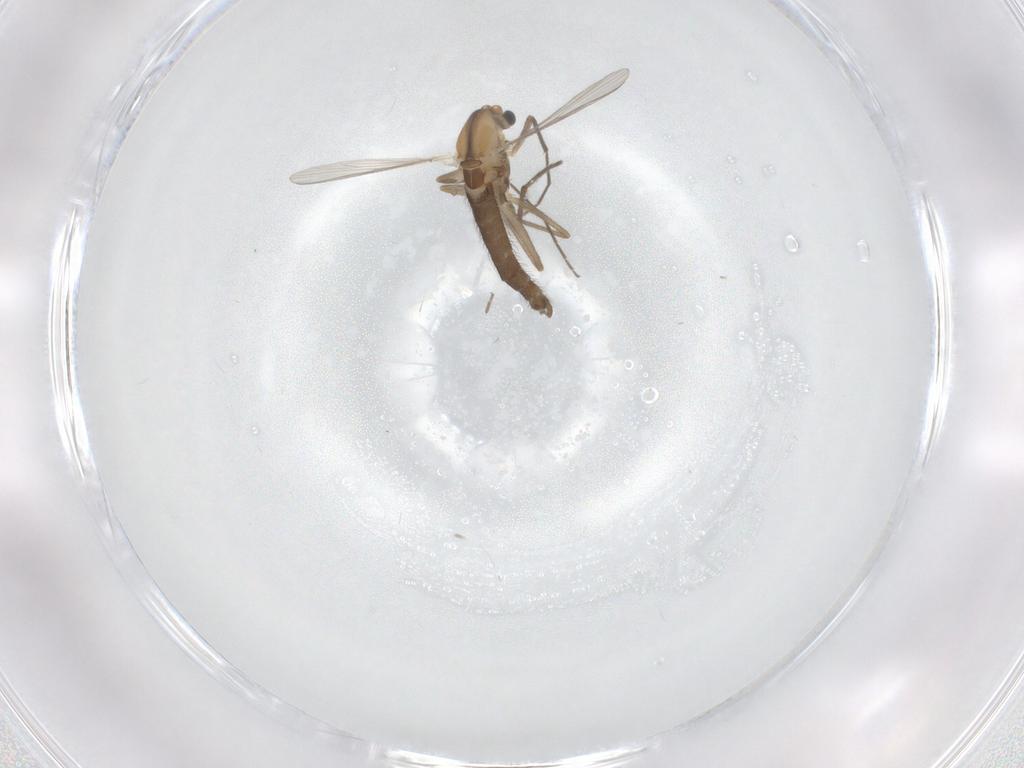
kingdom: Animalia
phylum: Arthropoda
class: Insecta
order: Diptera
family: Chironomidae
